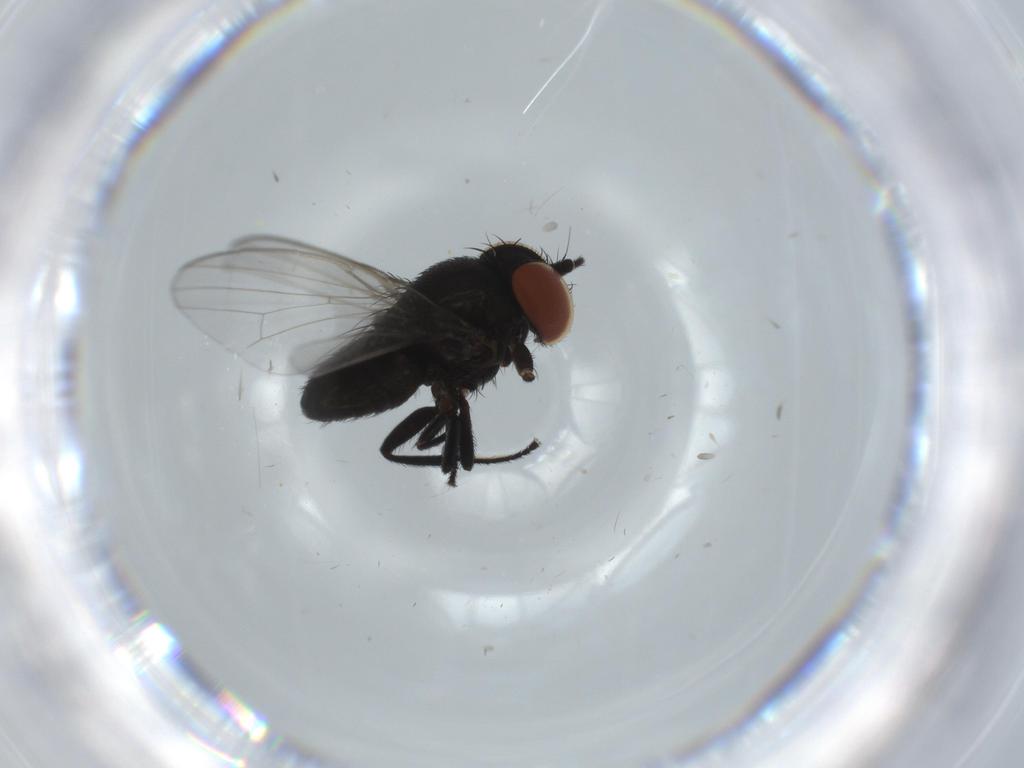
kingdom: Animalia
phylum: Arthropoda
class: Insecta
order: Diptera
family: Milichiidae
